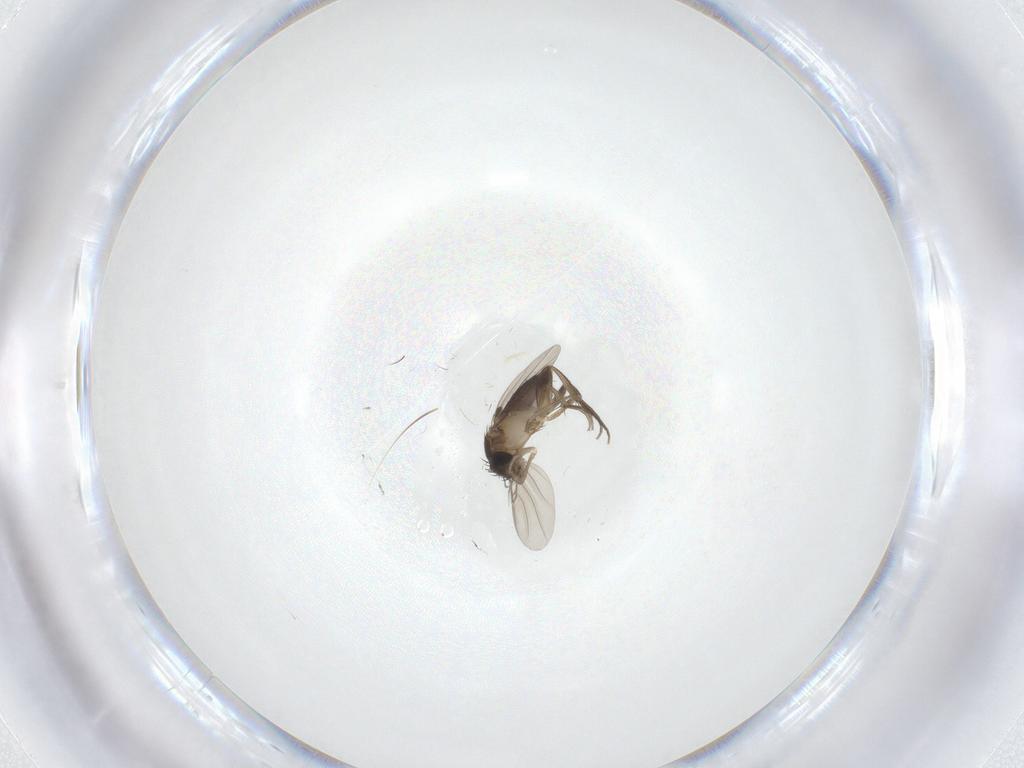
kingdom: Animalia
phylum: Arthropoda
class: Insecta
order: Diptera
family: Phoridae
